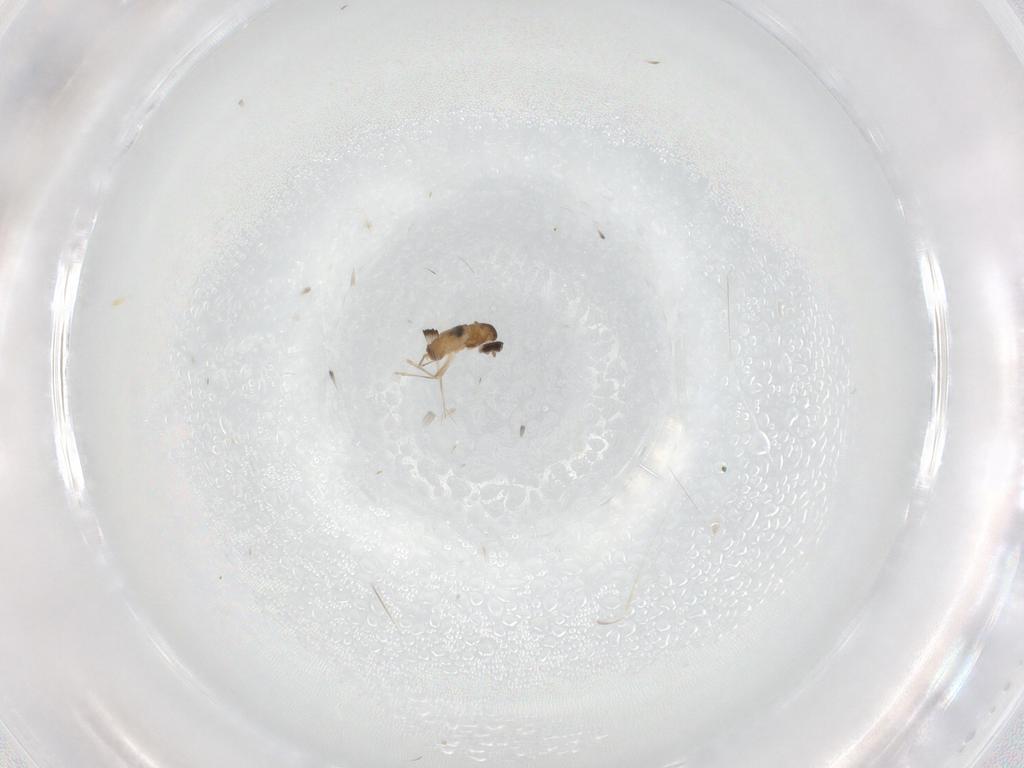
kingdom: Animalia
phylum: Arthropoda
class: Insecta
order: Diptera
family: Cecidomyiidae
